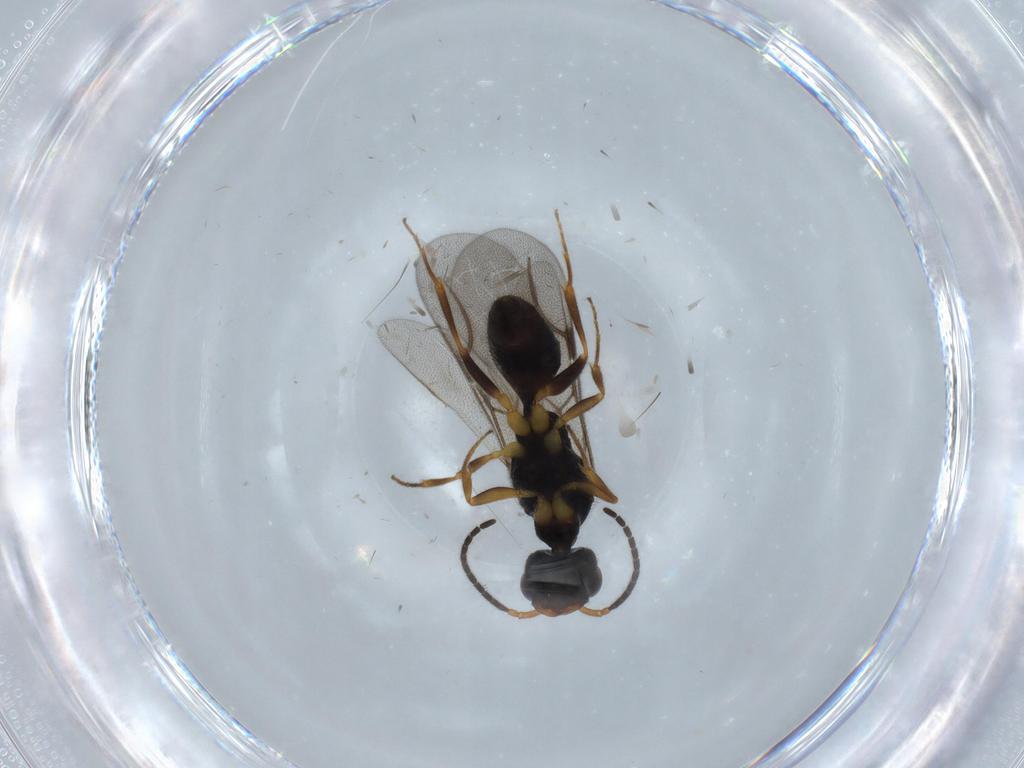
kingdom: Animalia
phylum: Arthropoda
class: Insecta
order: Hymenoptera
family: Bethylidae
